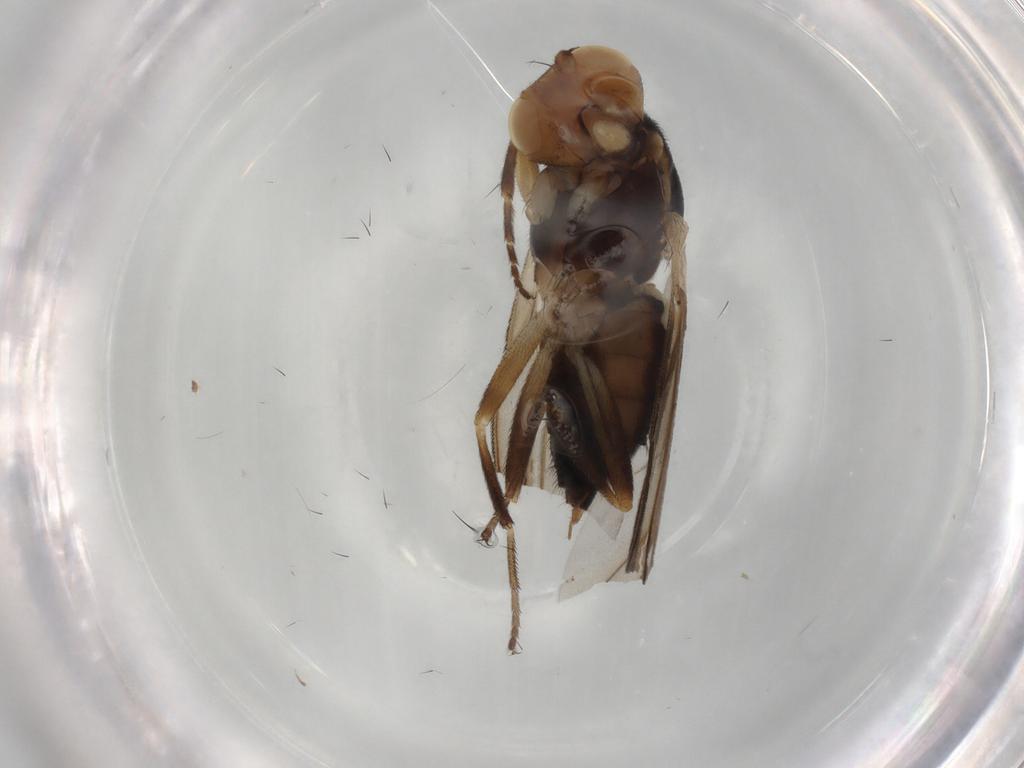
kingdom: Animalia
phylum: Arthropoda
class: Insecta
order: Diptera
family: Clusiidae
